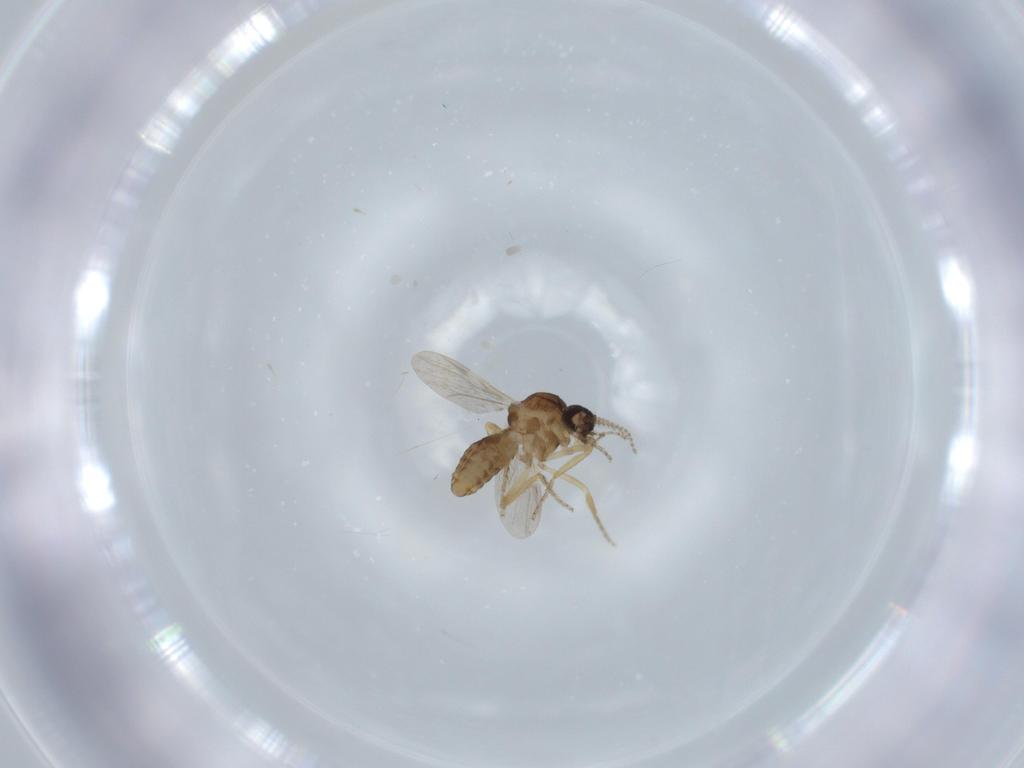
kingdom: Animalia
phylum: Arthropoda
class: Insecta
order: Diptera
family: Ceratopogonidae
